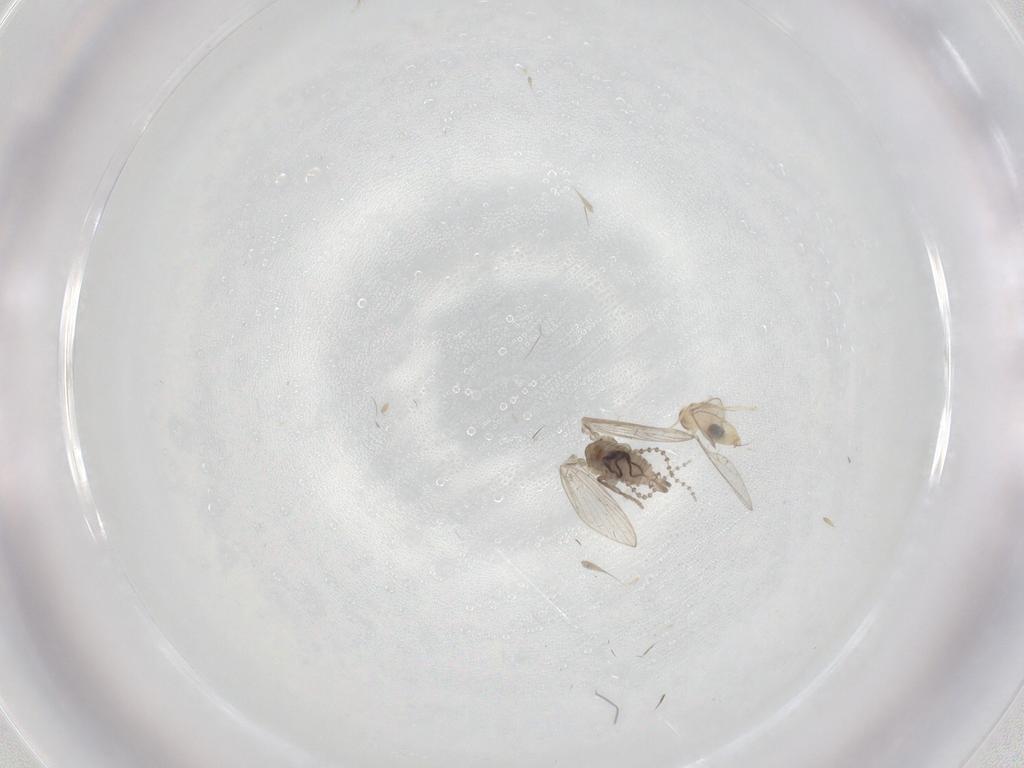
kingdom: Animalia
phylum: Arthropoda
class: Insecta
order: Diptera
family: Cecidomyiidae
